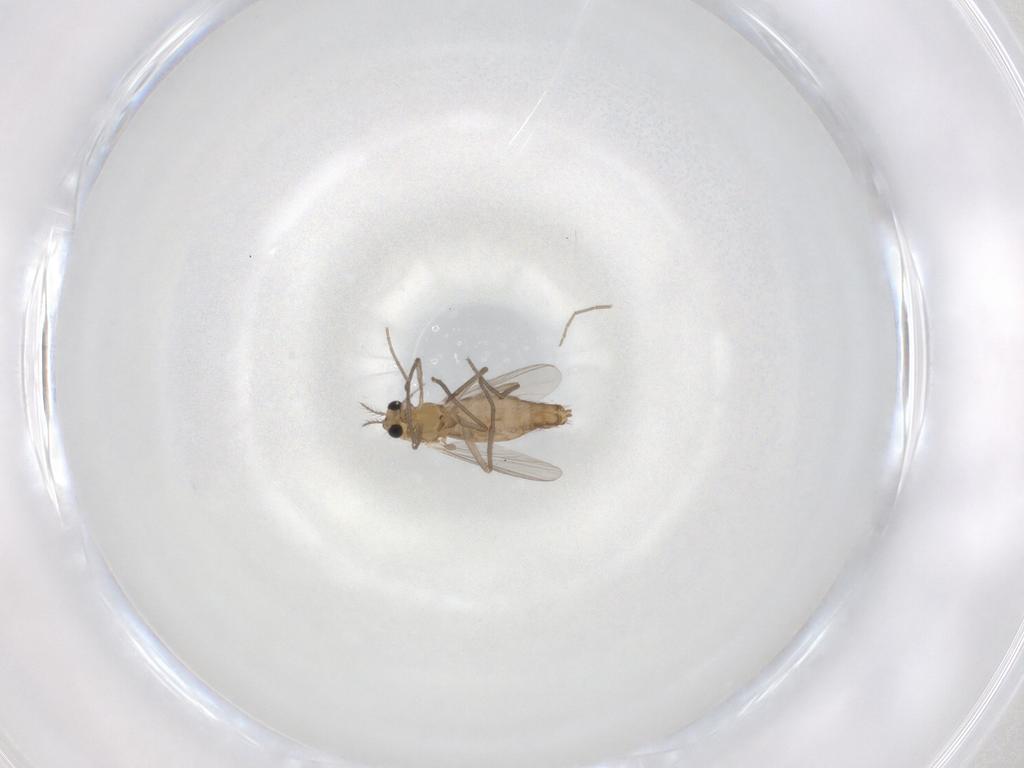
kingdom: Animalia
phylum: Arthropoda
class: Insecta
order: Diptera
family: Chironomidae
